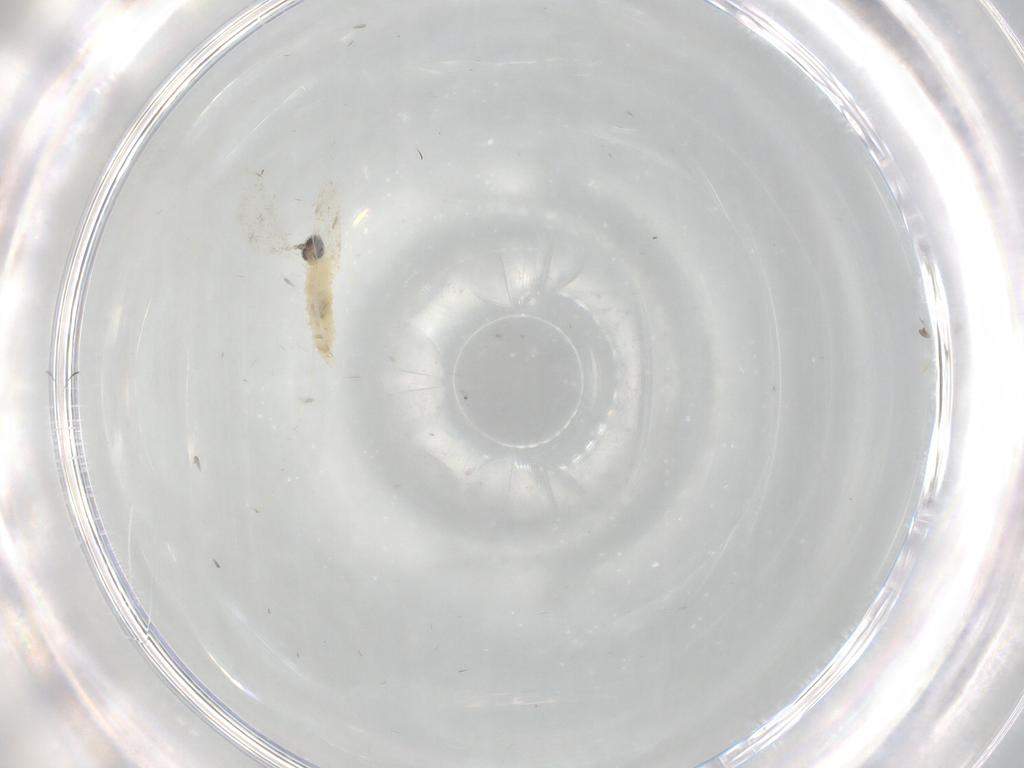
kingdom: Animalia
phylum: Arthropoda
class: Insecta
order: Diptera
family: Cecidomyiidae
